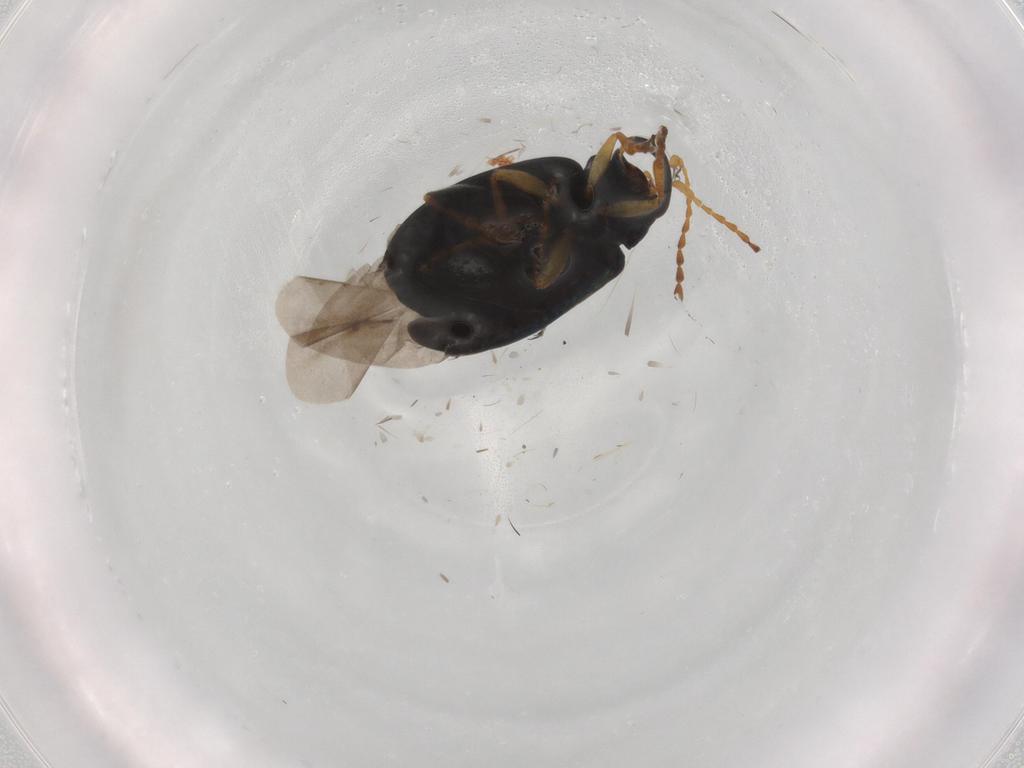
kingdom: Animalia
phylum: Arthropoda
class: Insecta
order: Coleoptera
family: Chrysomelidae
